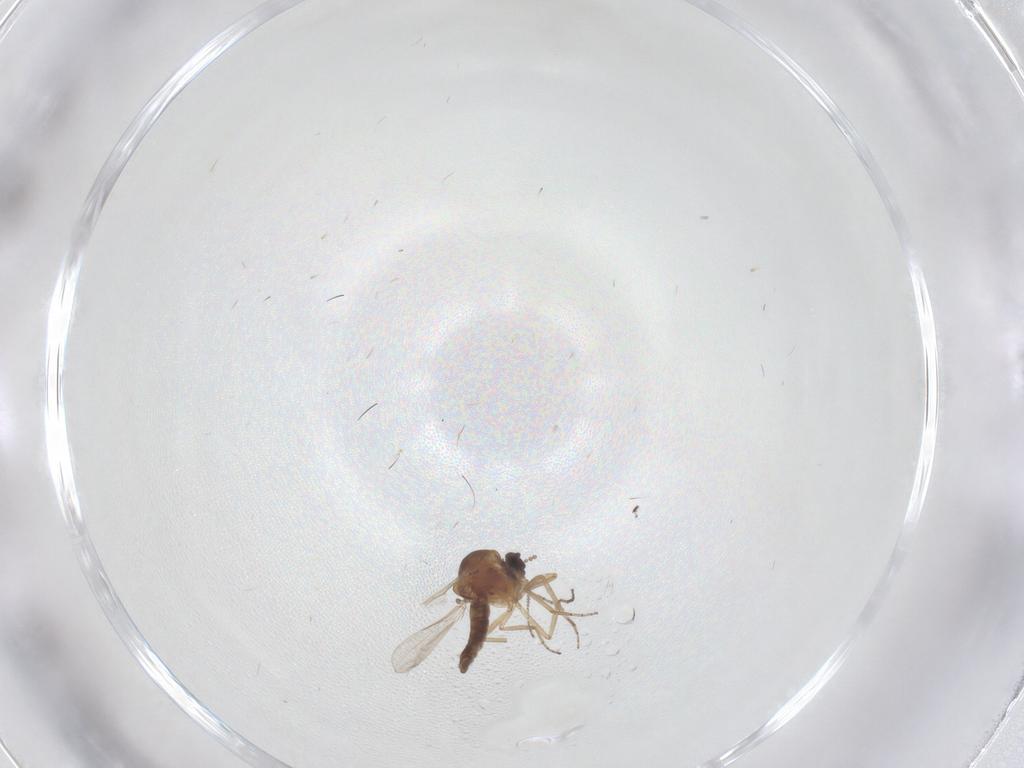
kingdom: Animalia
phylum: Arthropoda
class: Insecta
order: Diptera
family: Ceratopogonidae
